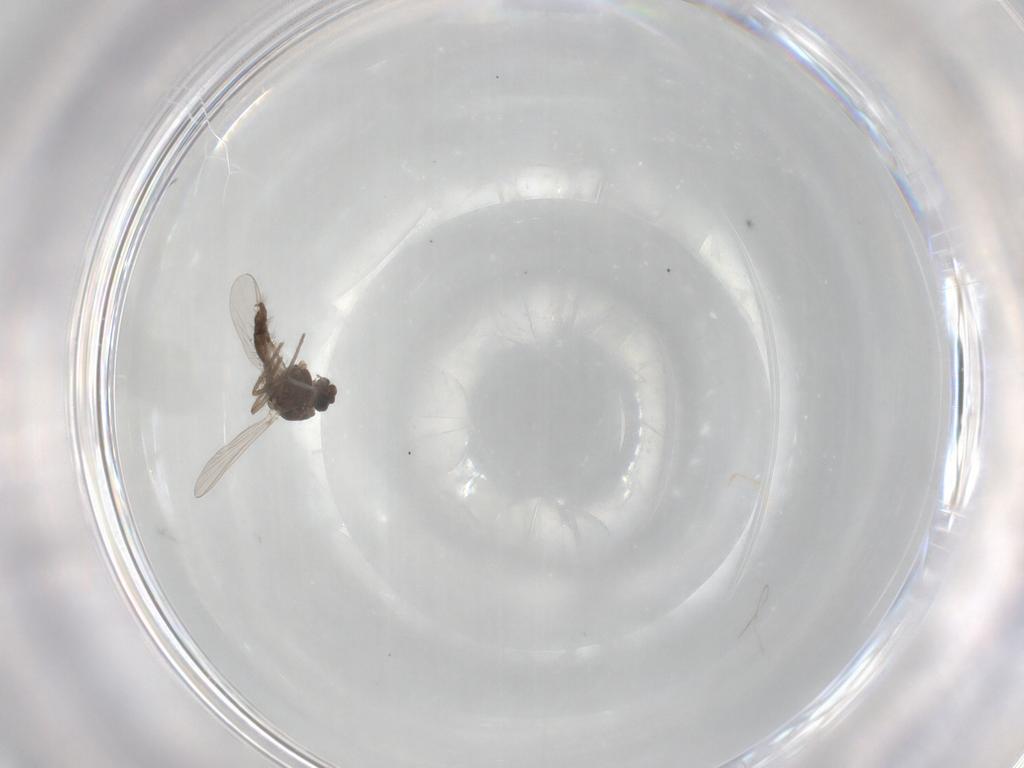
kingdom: Animalia
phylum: Arthropoda
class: Insecta
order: Diptera
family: Chironomidae
